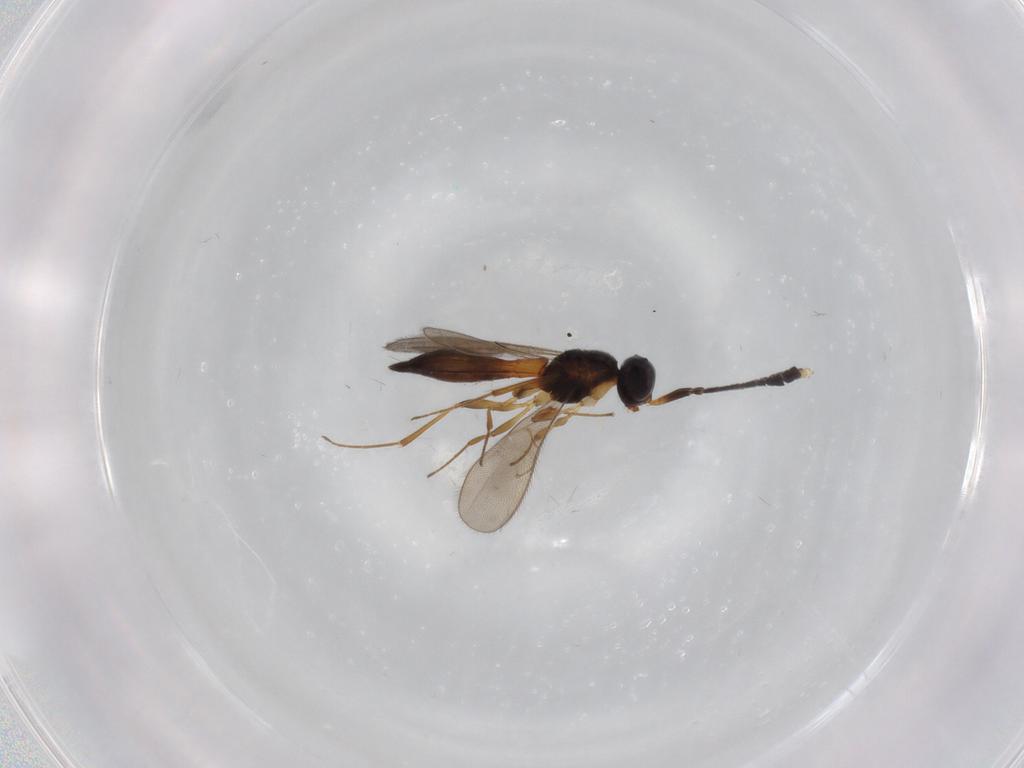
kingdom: Animalia
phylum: Arthropoda
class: Insecta
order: Hymenoptera
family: Scelionidae
